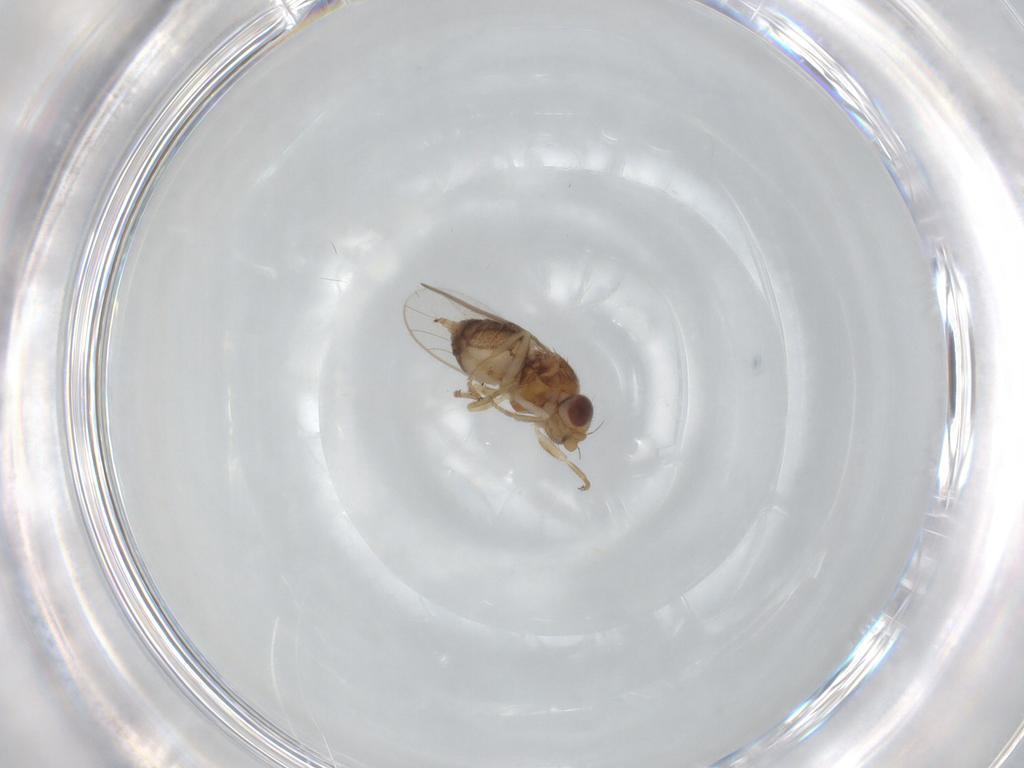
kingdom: Animalia
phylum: Arthropoda
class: Insecta
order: Diptera
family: Chloropidae
